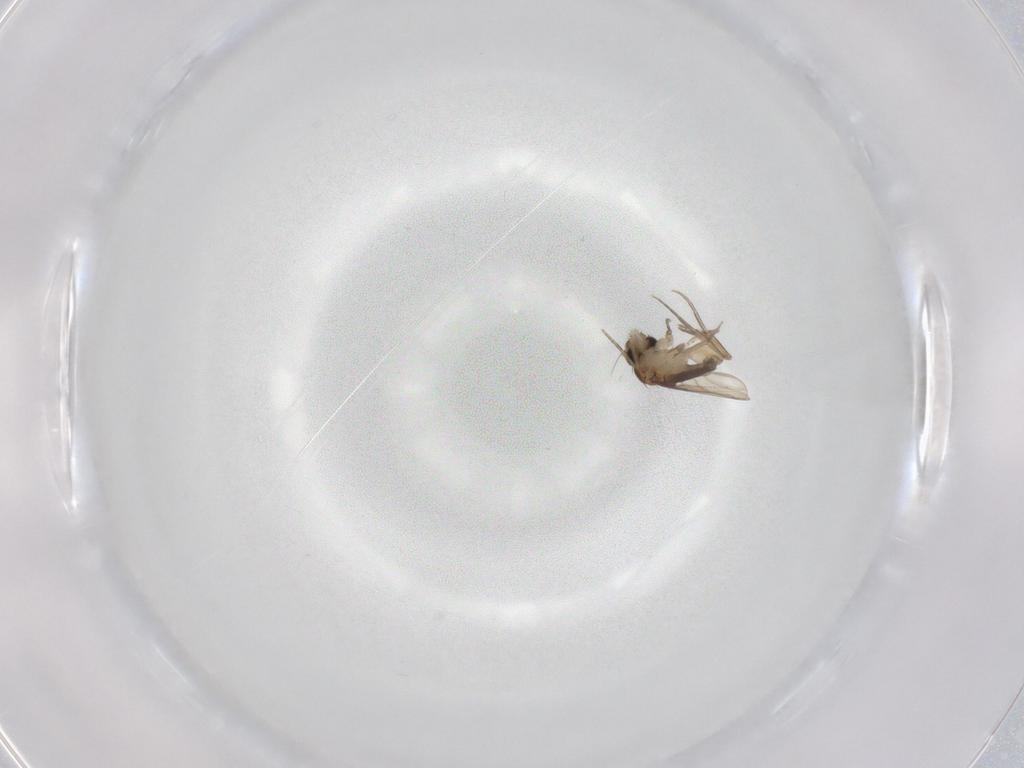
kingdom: Animalia
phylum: Arthropoda
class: Insecta
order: Diptera
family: Phoridae
